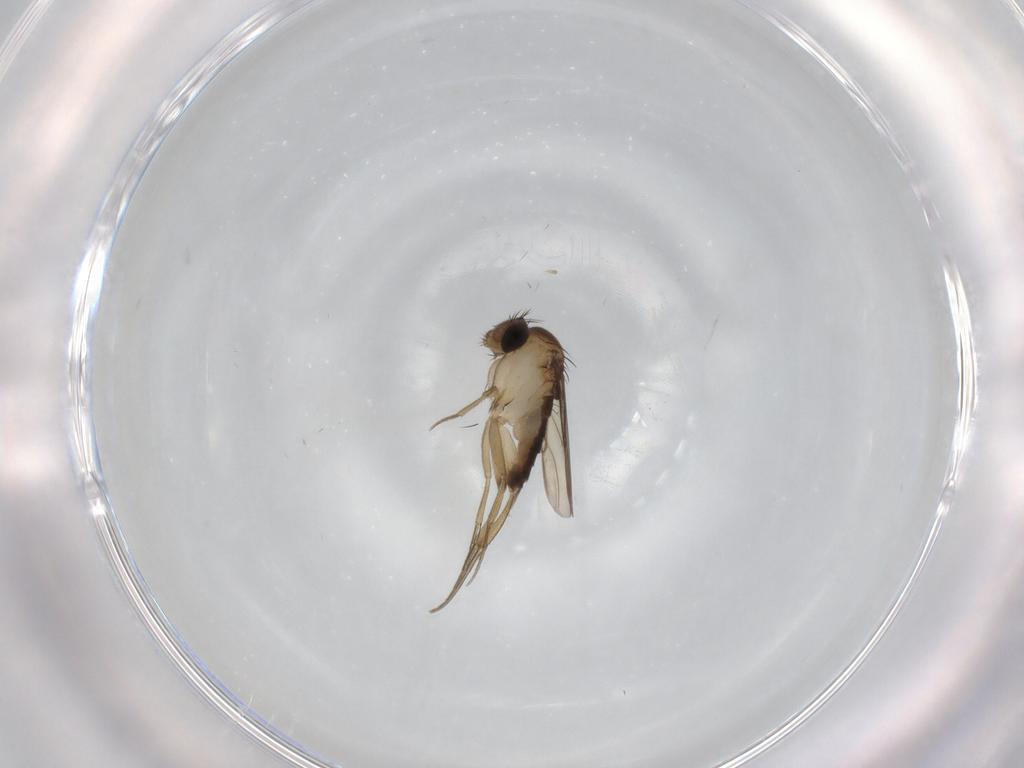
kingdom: Animalia
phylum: Arthropoda
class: Insecta
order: Diptera
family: Phoridae
